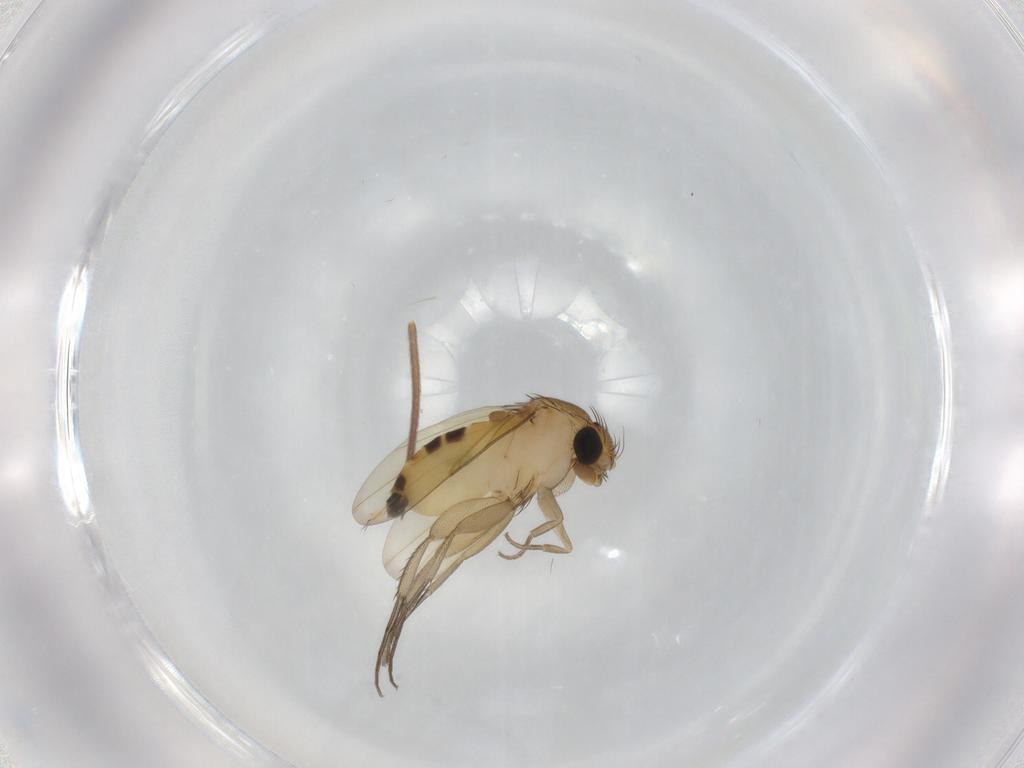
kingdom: Animalia
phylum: Arthropoda
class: Insecta
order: Diptera
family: Phoridae
